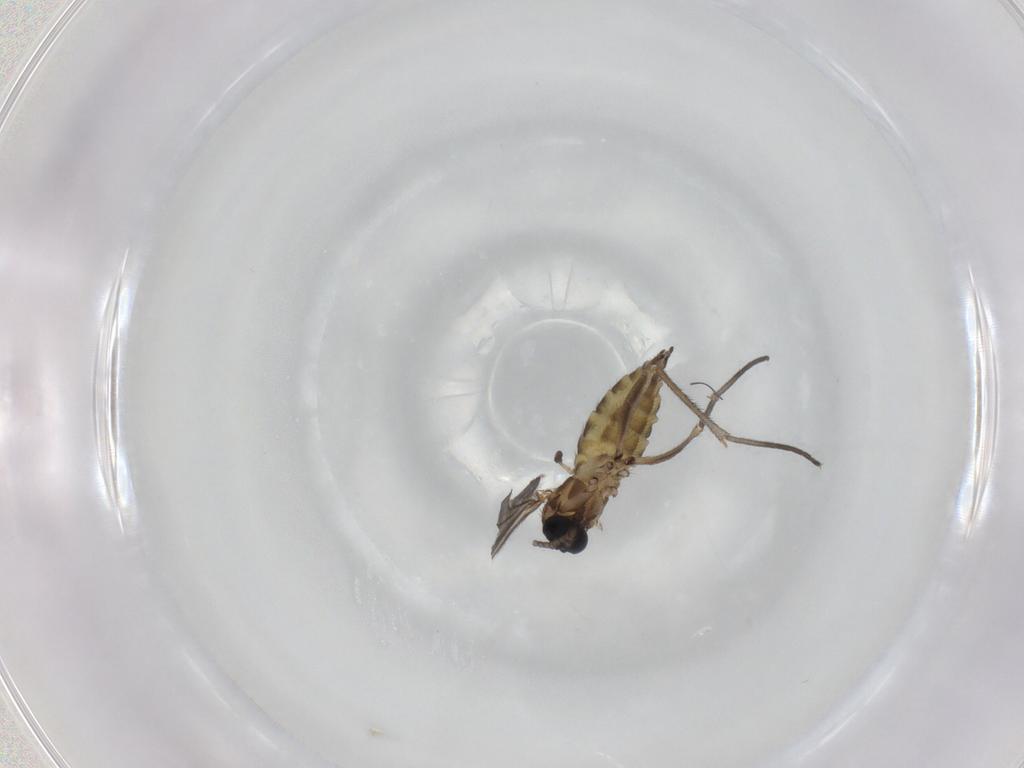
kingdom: Animalia
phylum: Arthropoda
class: Insecta
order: Diptera
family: Sciaridae
